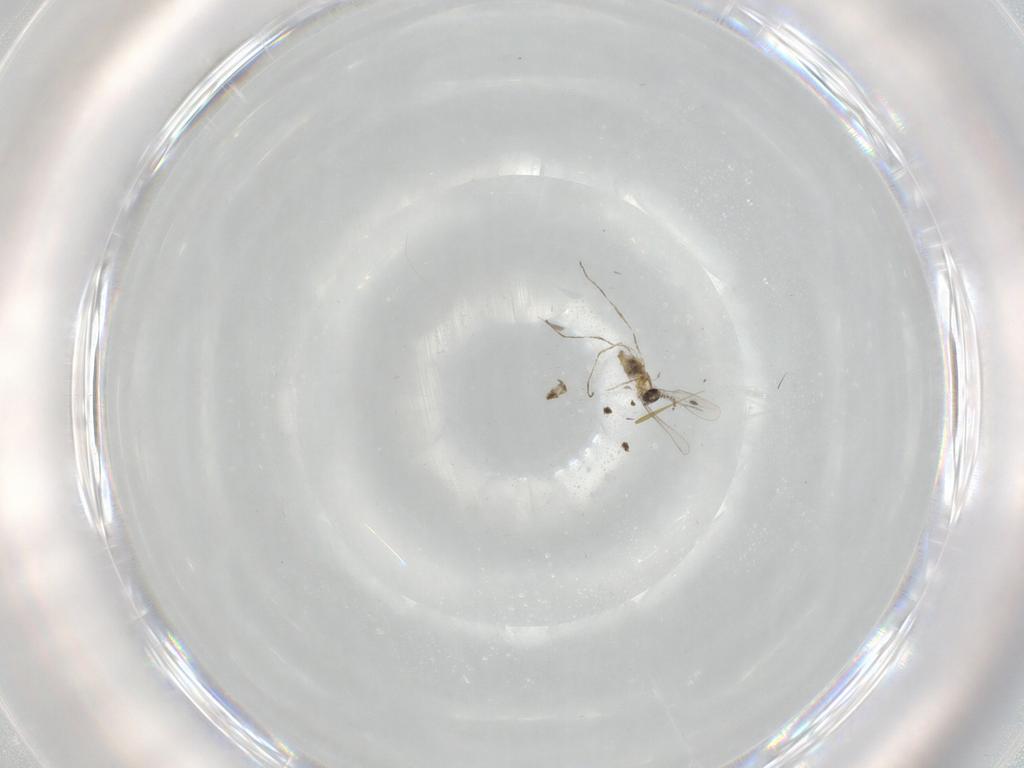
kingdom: Animalia
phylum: Arthropoda
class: Insecta
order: Diptera
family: Cecidomyiidae
